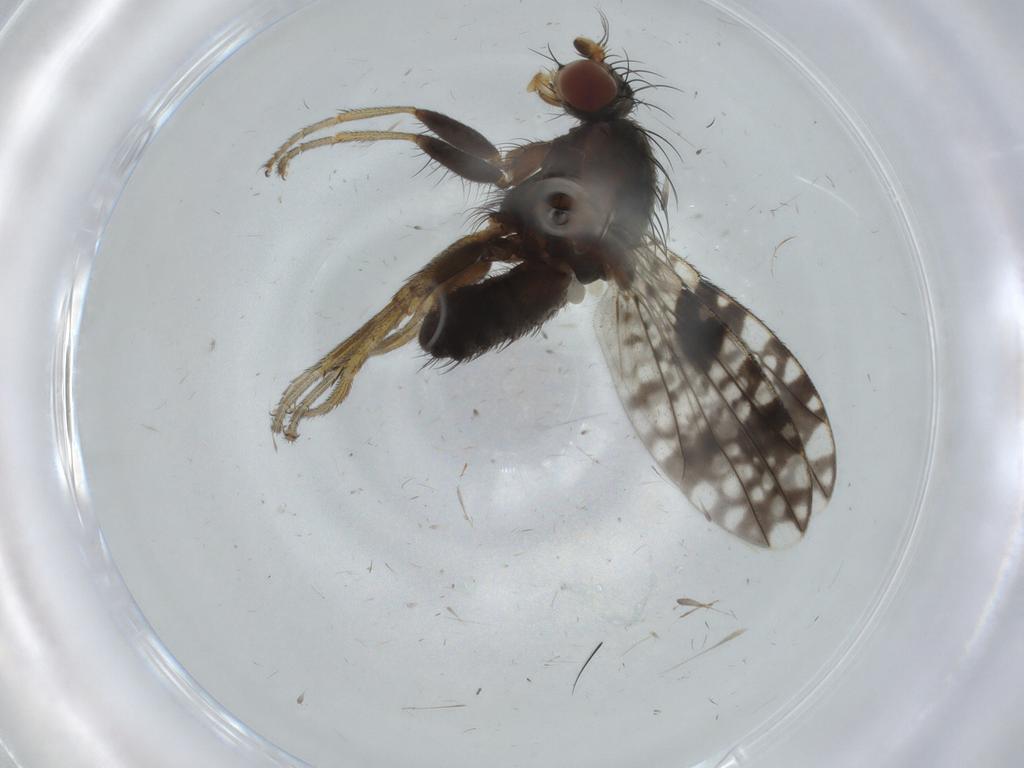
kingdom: Animalia
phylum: Arthropoda
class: Insecta
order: Diptera
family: Tephritidae
